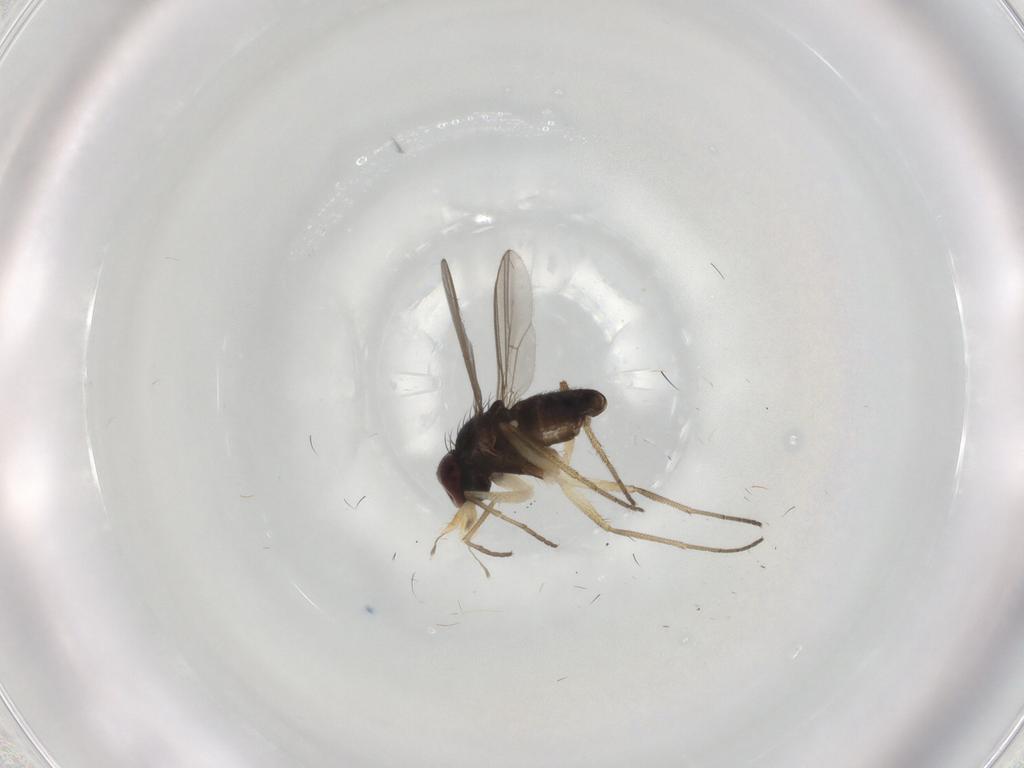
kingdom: Animalia
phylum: Arthropoda
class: Insecta
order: Diptera
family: Dolichopodidae
